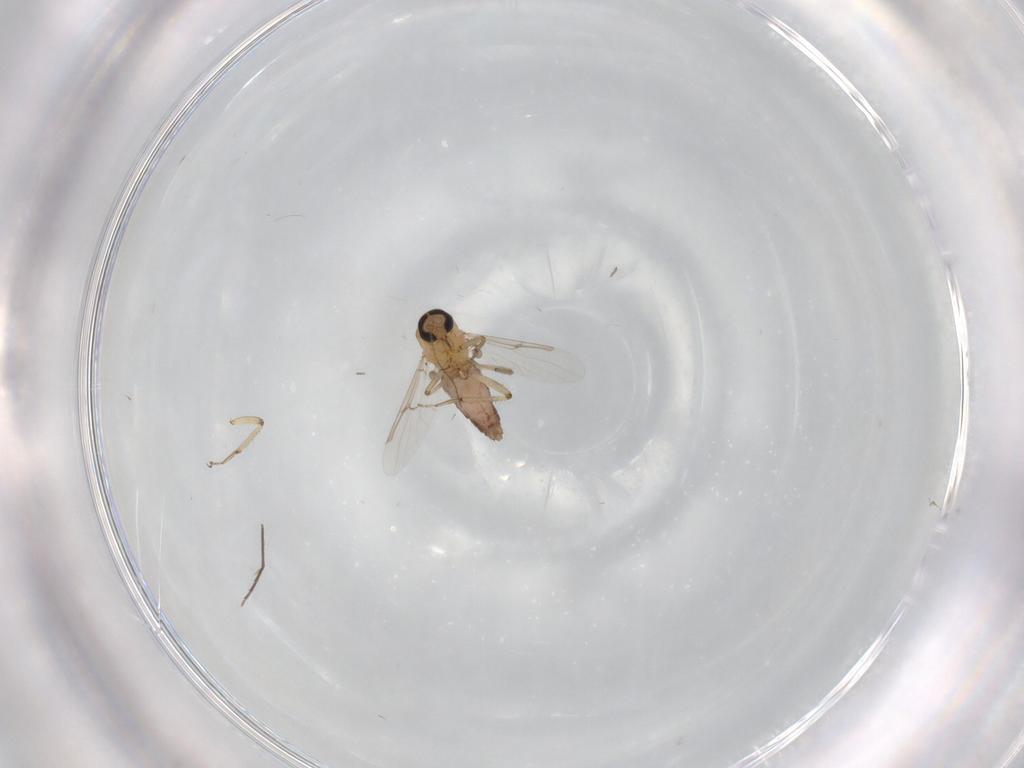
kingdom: Animalia
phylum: Arthropoda
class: Insecta
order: Diptera
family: Ceratopogonidae
